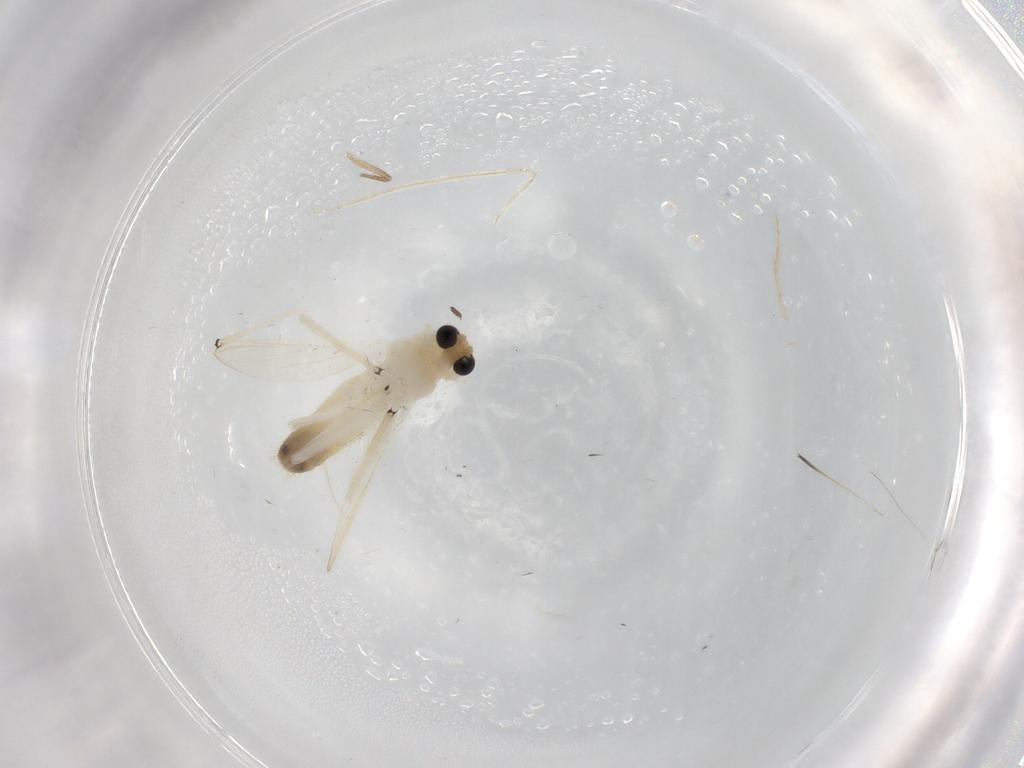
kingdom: Animalia
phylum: Arthropoda
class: Insecta
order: Diptera
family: Chironomidae
